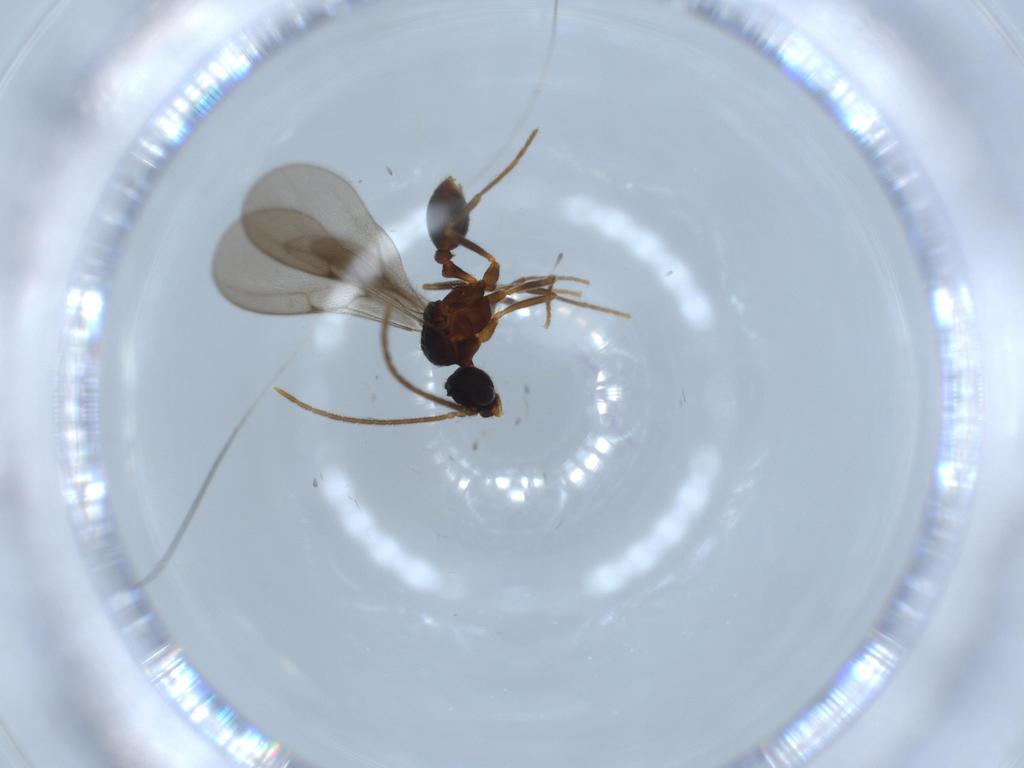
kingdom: Animalia
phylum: Arthropoda
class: Insecta
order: Hymenoptera
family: Formicidae
